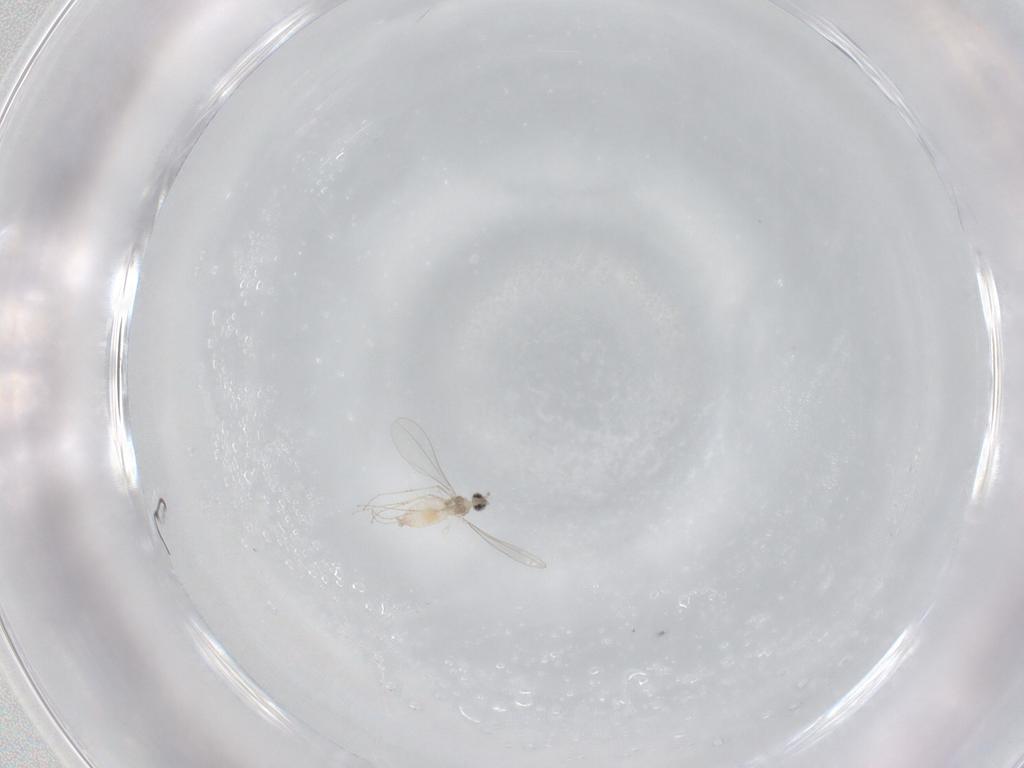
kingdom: Animalia
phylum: Arthropoda
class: Insecta
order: Diptera
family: Cecidomyiidae
